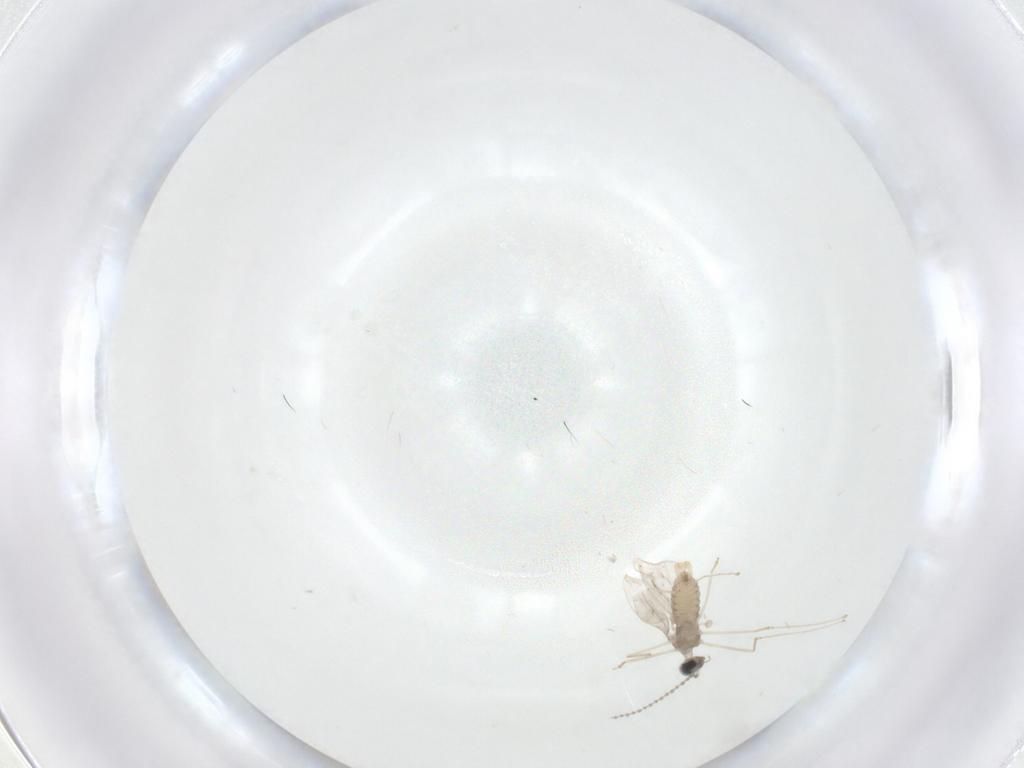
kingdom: Animalia
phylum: Arthropoda
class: Insecta
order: Diptera
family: Cecidomyiidae
